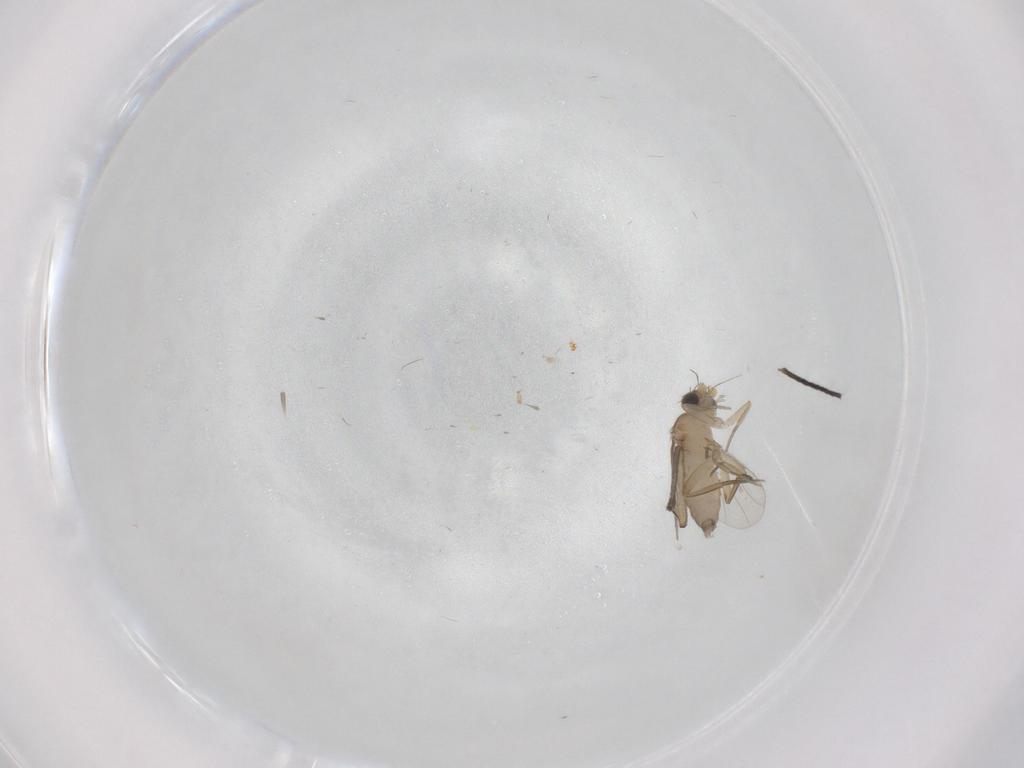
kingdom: Animalia
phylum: Arthropoda
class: Insecta
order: Diptera
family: Phoridae
